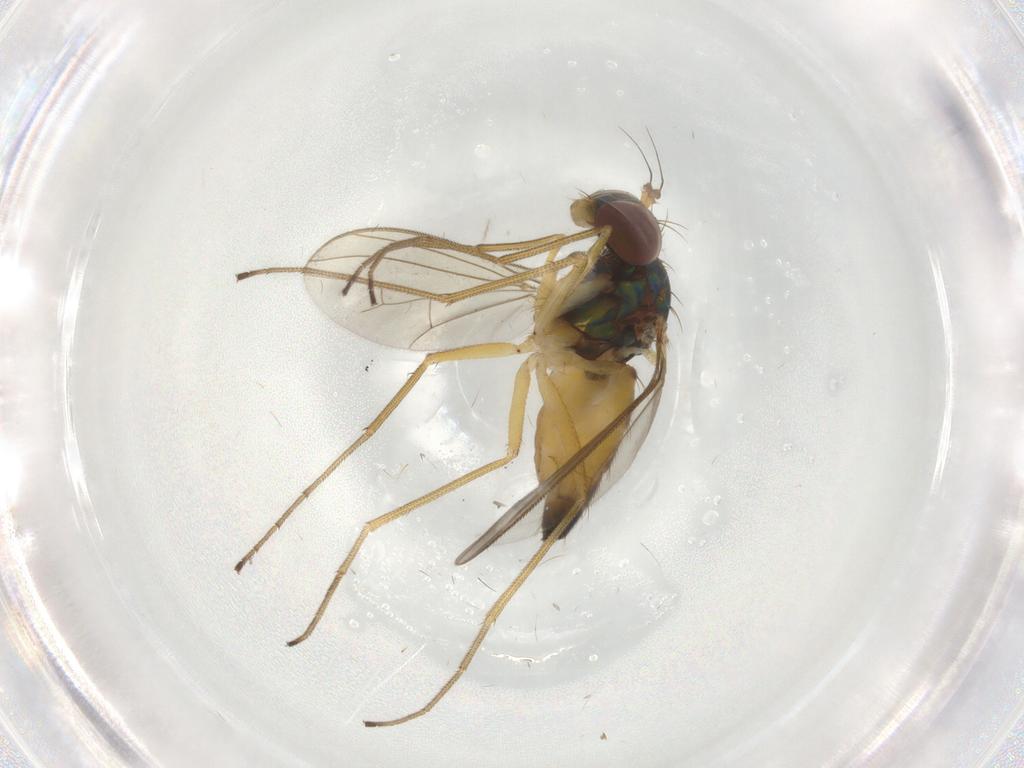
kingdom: Animalia
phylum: Arthropoda
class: Insecta
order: Diptera
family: Dolichopodidae
